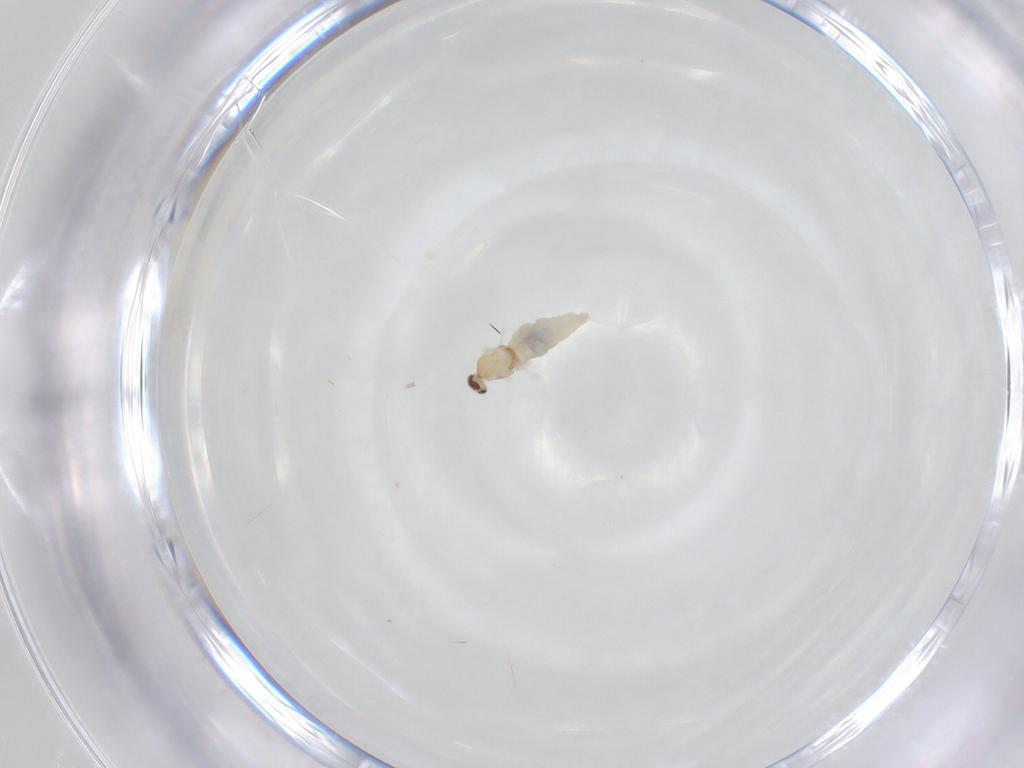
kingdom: Animalia
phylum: Arthropoda
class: Insecta
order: Diptera
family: Cecidomyiidae
